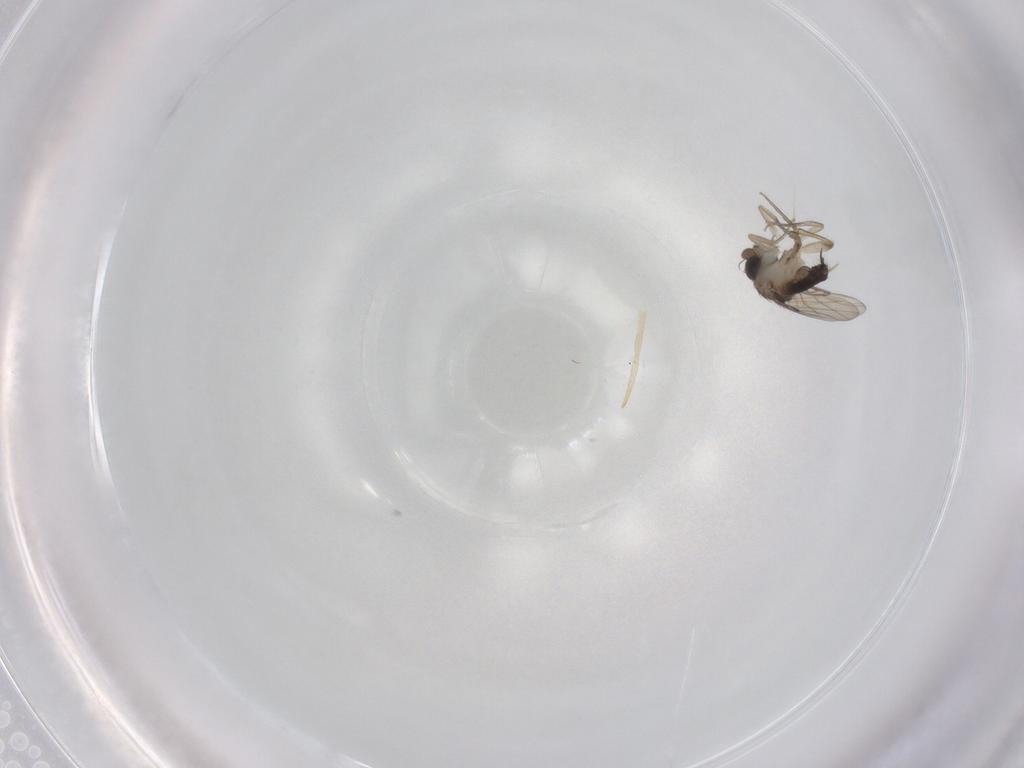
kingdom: Animalia
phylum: Arthropoda
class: Insecta
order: Diptera
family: Phoridae
